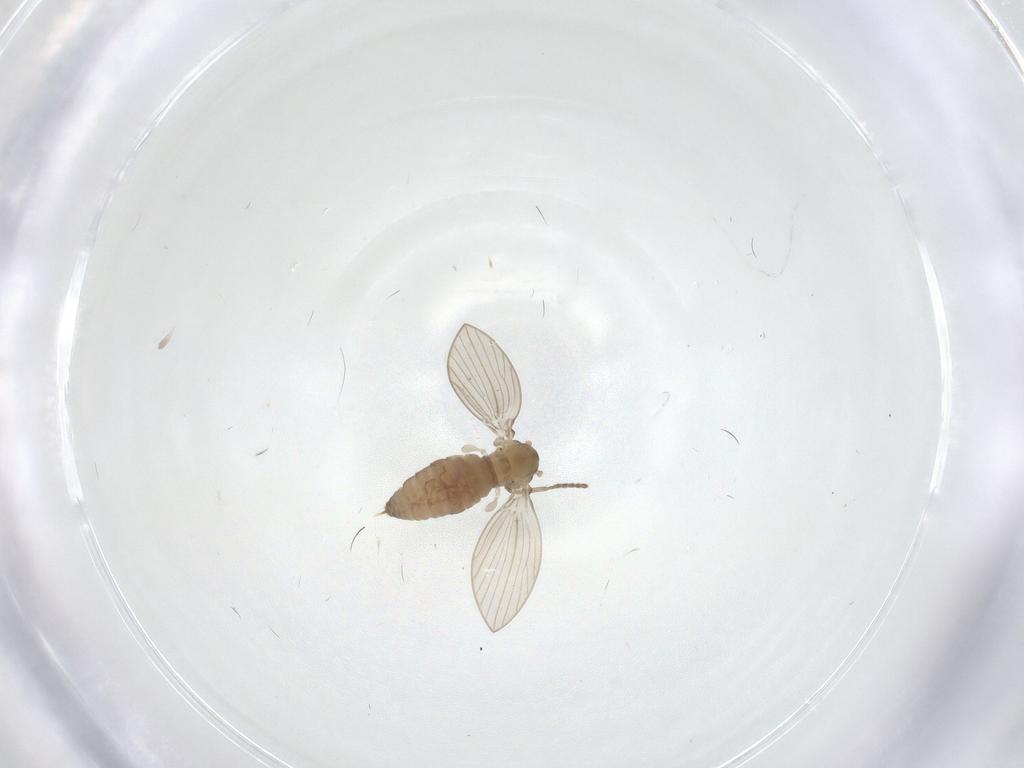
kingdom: Animalia
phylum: Arthropoda
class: Insecta
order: Diptera
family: Psychodidae
